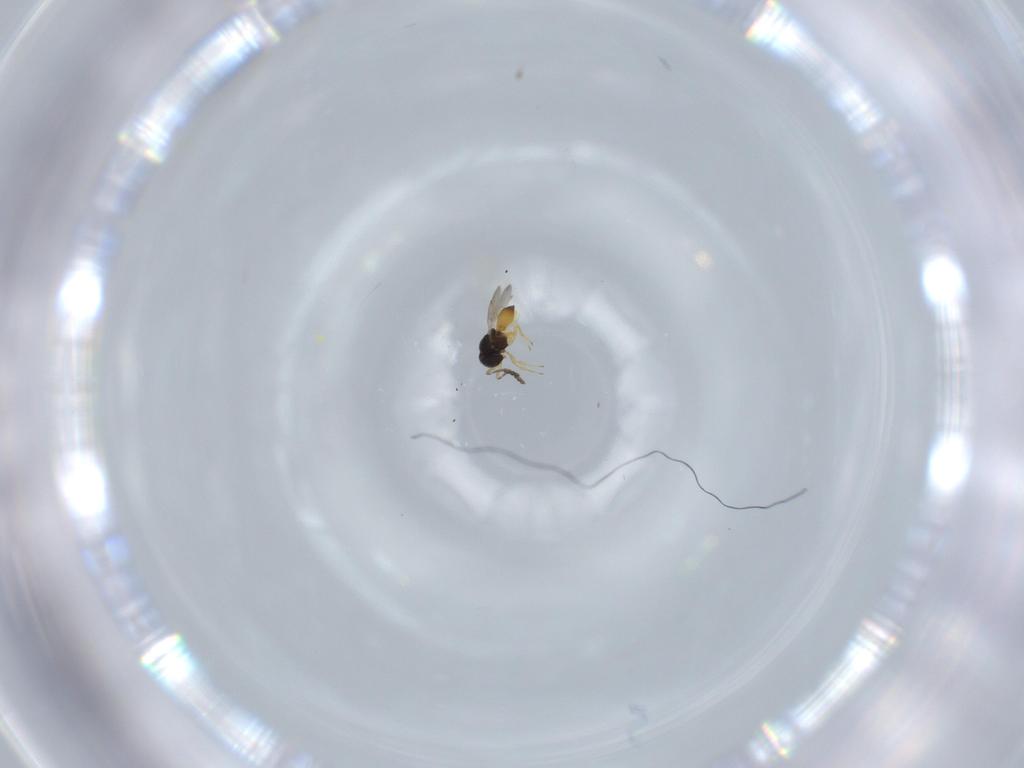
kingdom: Animalia
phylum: Arthropoda
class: Insecta
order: Hymenoptera
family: Scelionidae
